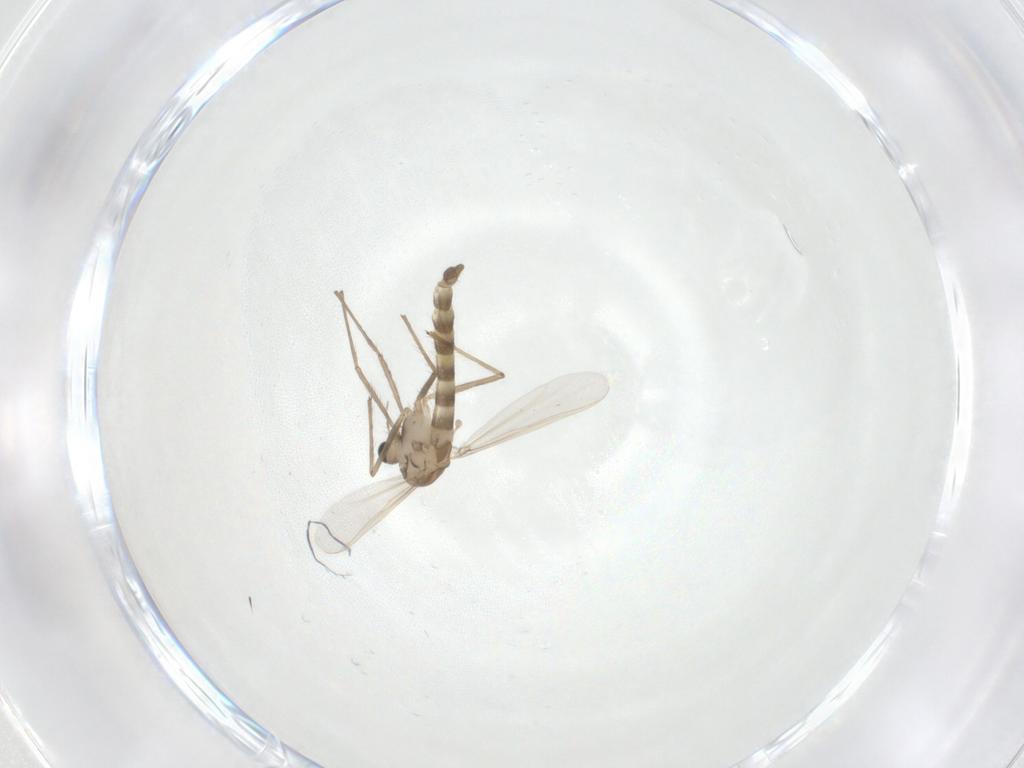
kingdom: Animalia
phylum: Arthropoda
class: Insecta
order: Diptera
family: Chironomidae
